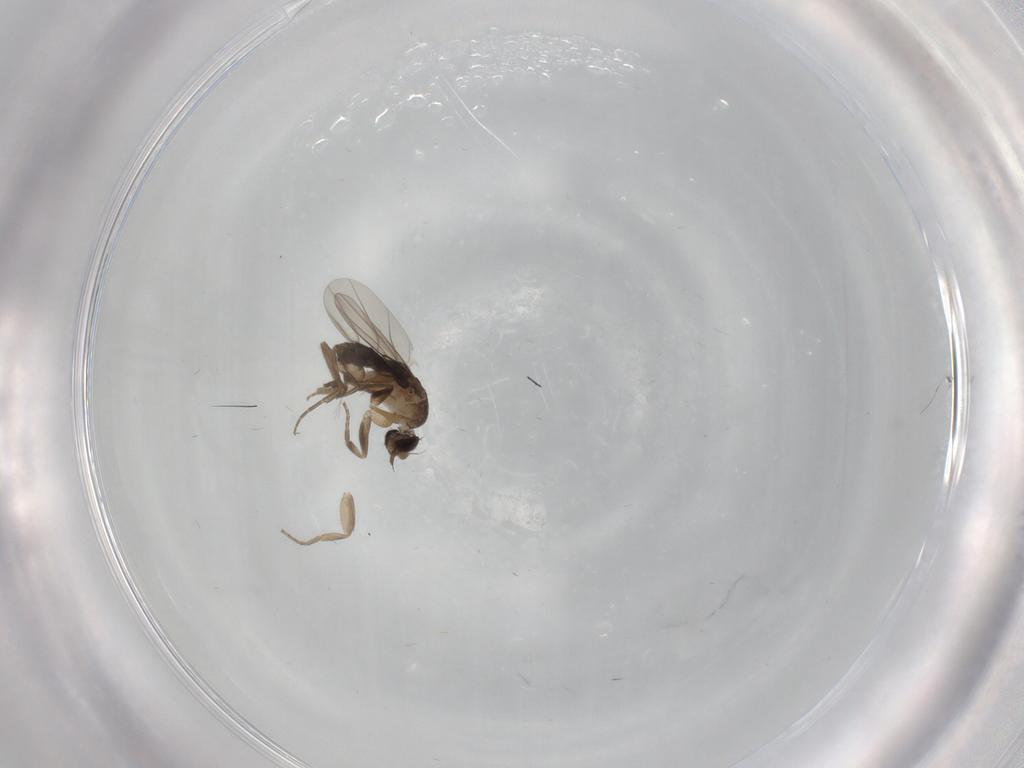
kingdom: Animalia
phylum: Arthropoda
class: Insecta
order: Diptera
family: Phoridae
